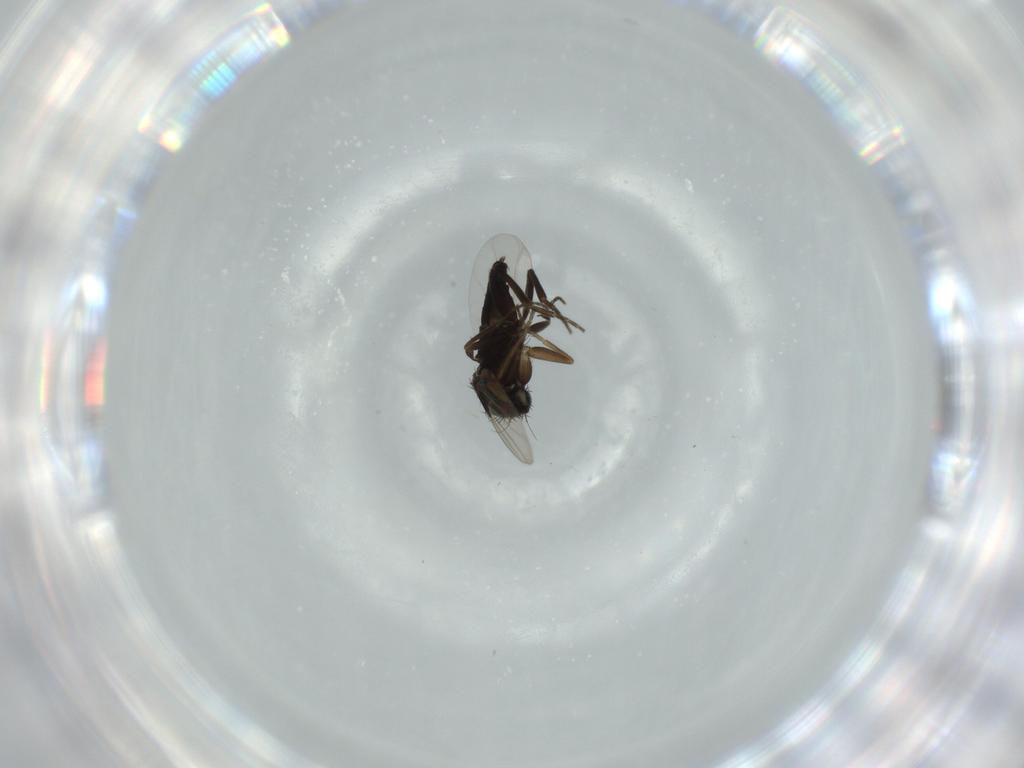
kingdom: Animalia
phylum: Arthropoda
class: Insecta
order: Diptera
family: Phoridae
